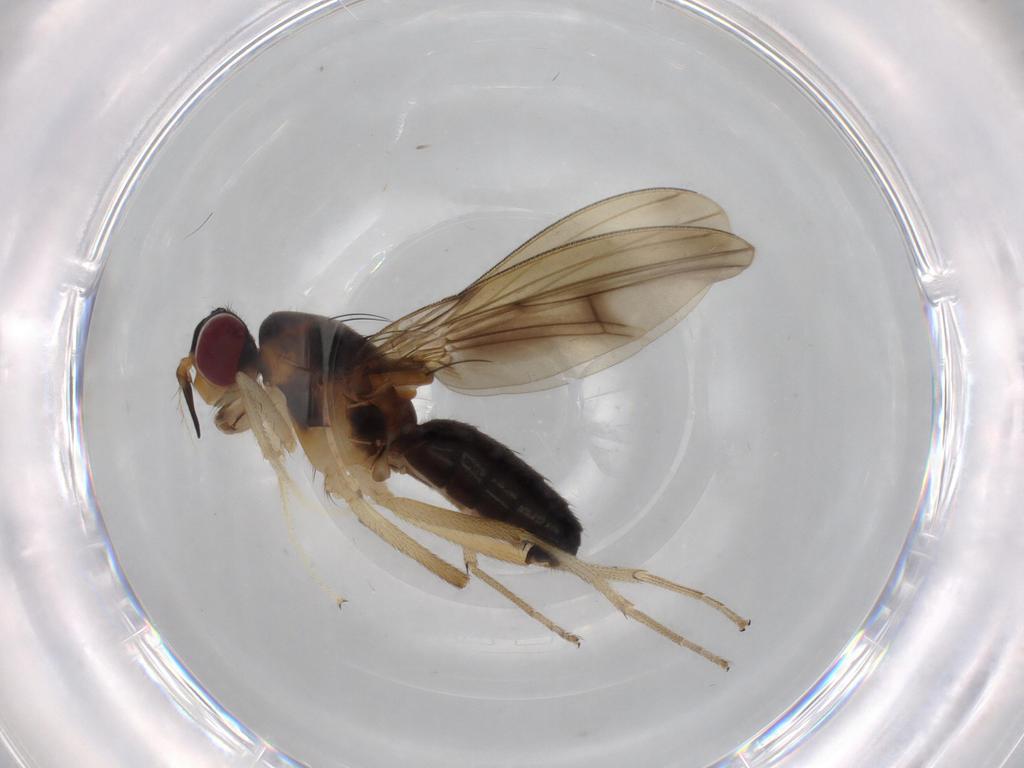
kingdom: Animalia
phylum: Arthropoda
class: Insecta
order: Diptera
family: Lauxaniidae
